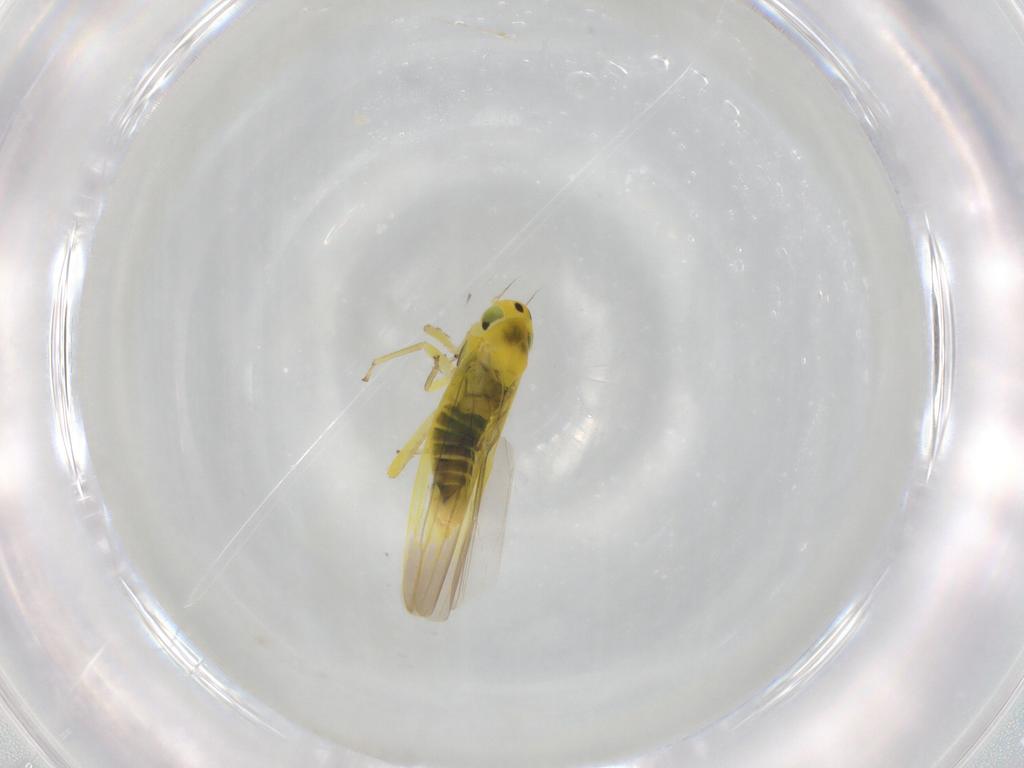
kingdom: Animalia
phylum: Arthropoda
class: Insecta
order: Hemiptera
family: Cicadellidae
